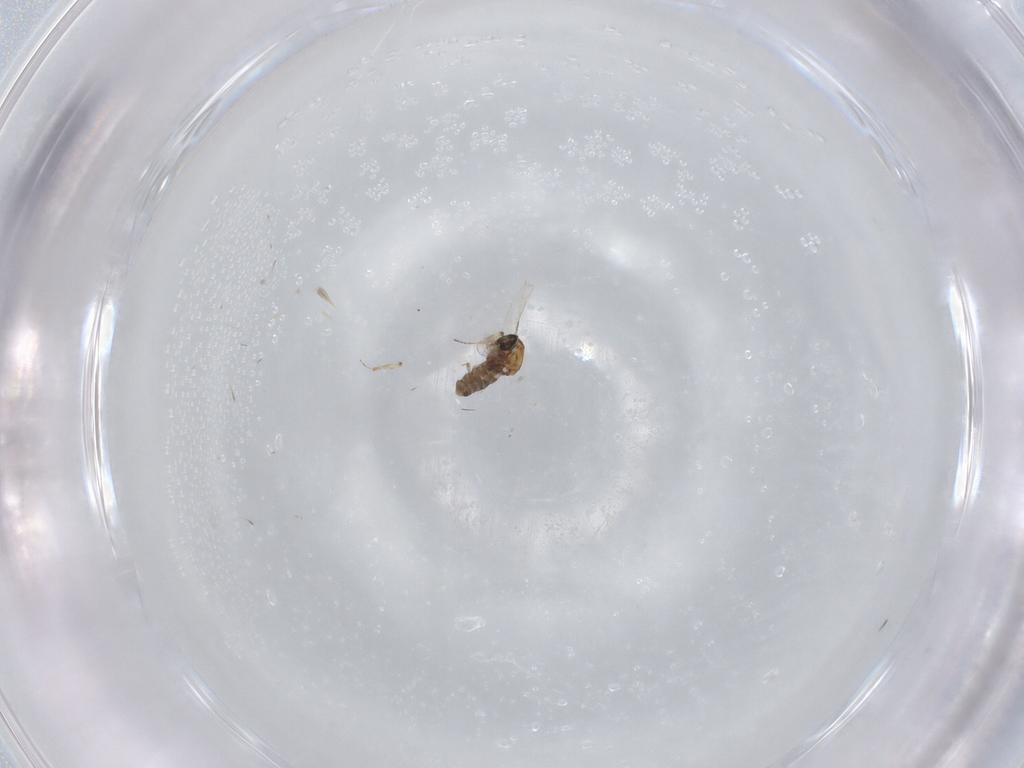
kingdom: Animalia
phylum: Arthropoda
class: Insecta
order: Diptera
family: Ceratopogonidae
